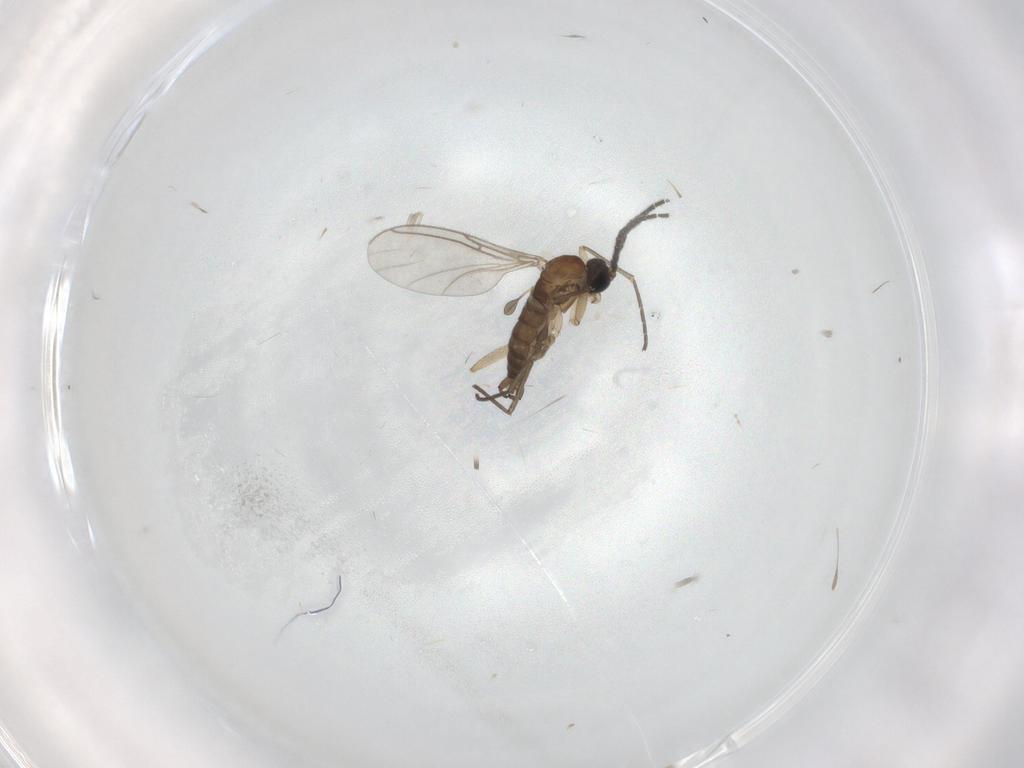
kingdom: Animalia
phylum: Arthropoda
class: Insecta
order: Diptera
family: Sciaridae
